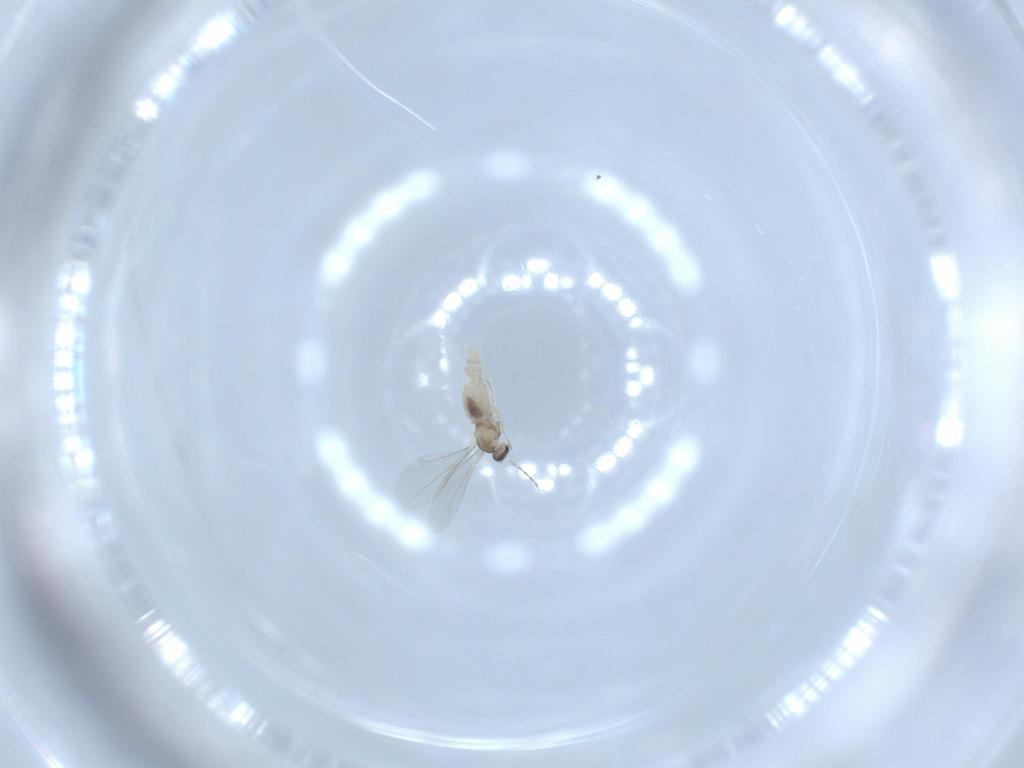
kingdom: Animalia
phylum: Arthropoda
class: Insecta
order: Diptera
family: Cecidomyiidae
